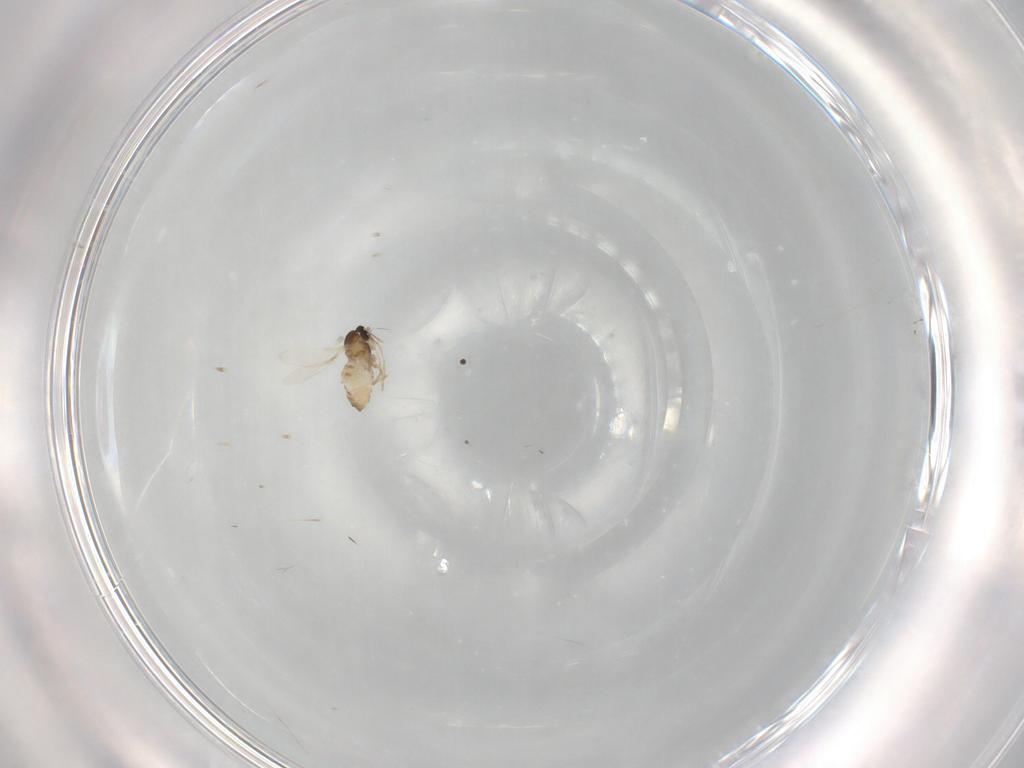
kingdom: Animalia
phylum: Arthropoda
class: Insecta
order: Diptera
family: Cecidomyiidae
